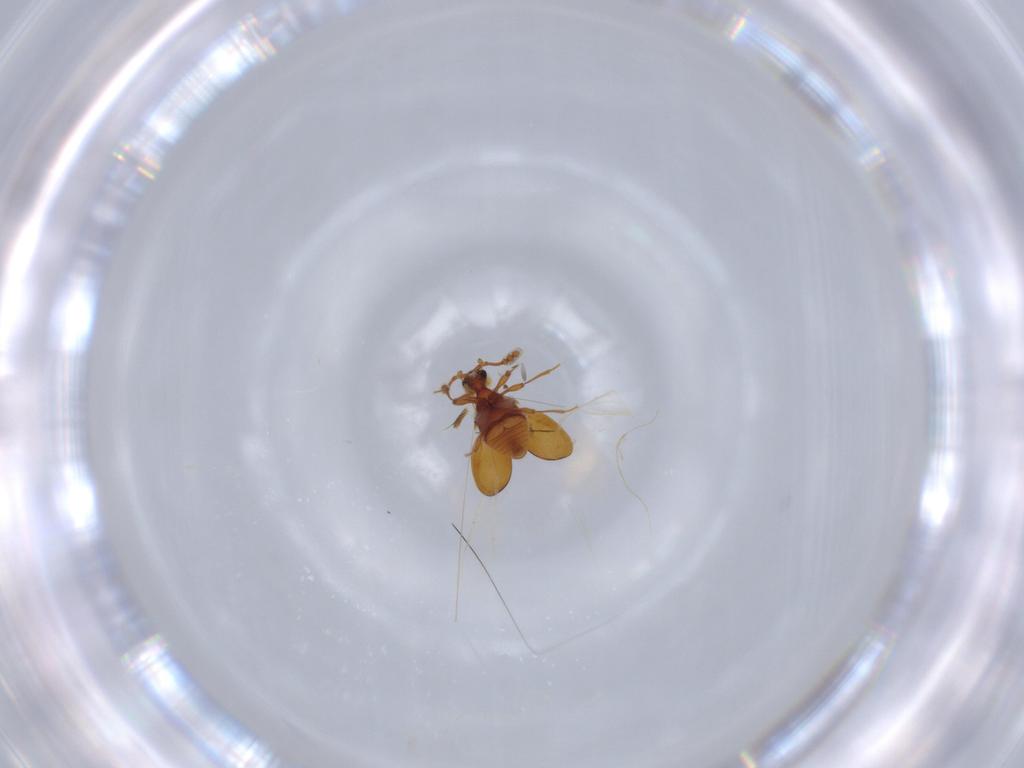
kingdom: Animalia
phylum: Arthropoda
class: Insecta
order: Coleoptera
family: Staphylinidae
